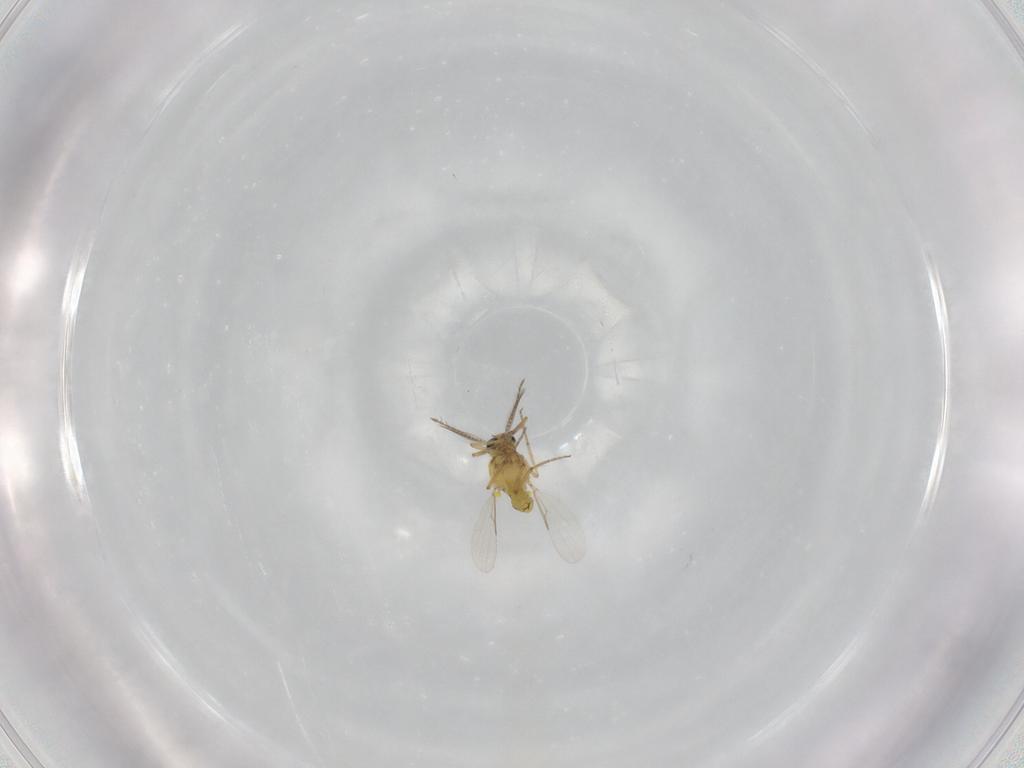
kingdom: Animalia
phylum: Arthropoda
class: Insecta
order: Diptera
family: Ceratopogonidae
